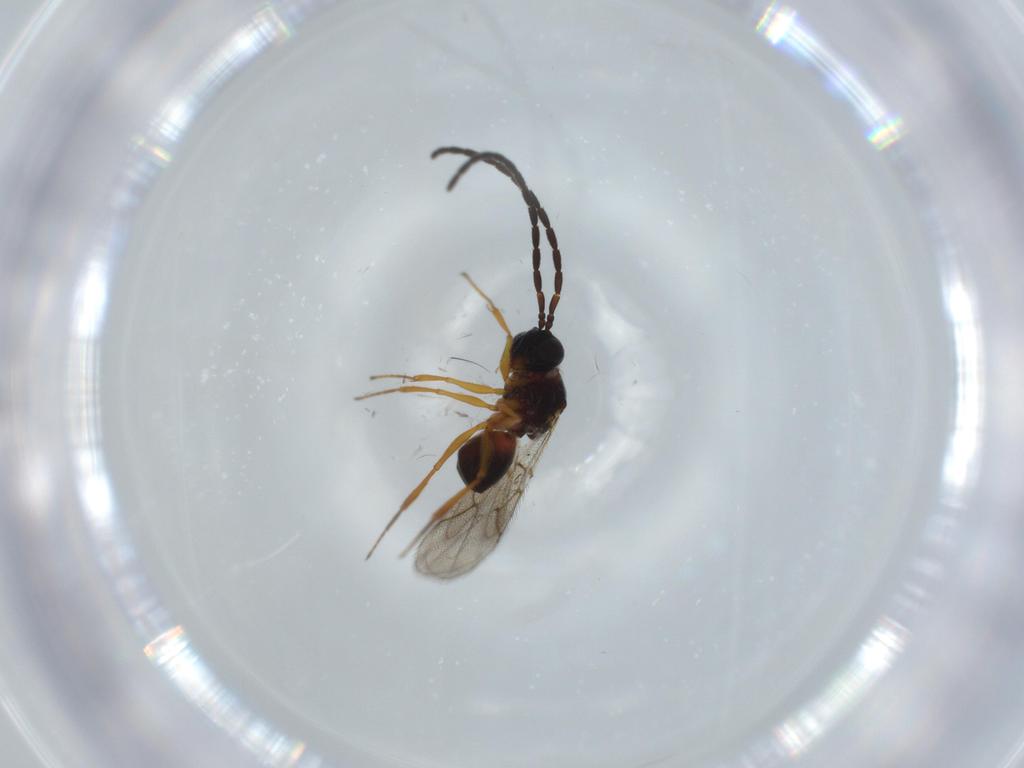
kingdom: Animalia
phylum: Arthropoda
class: Insecta
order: Hymenoptera
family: Figitidae
